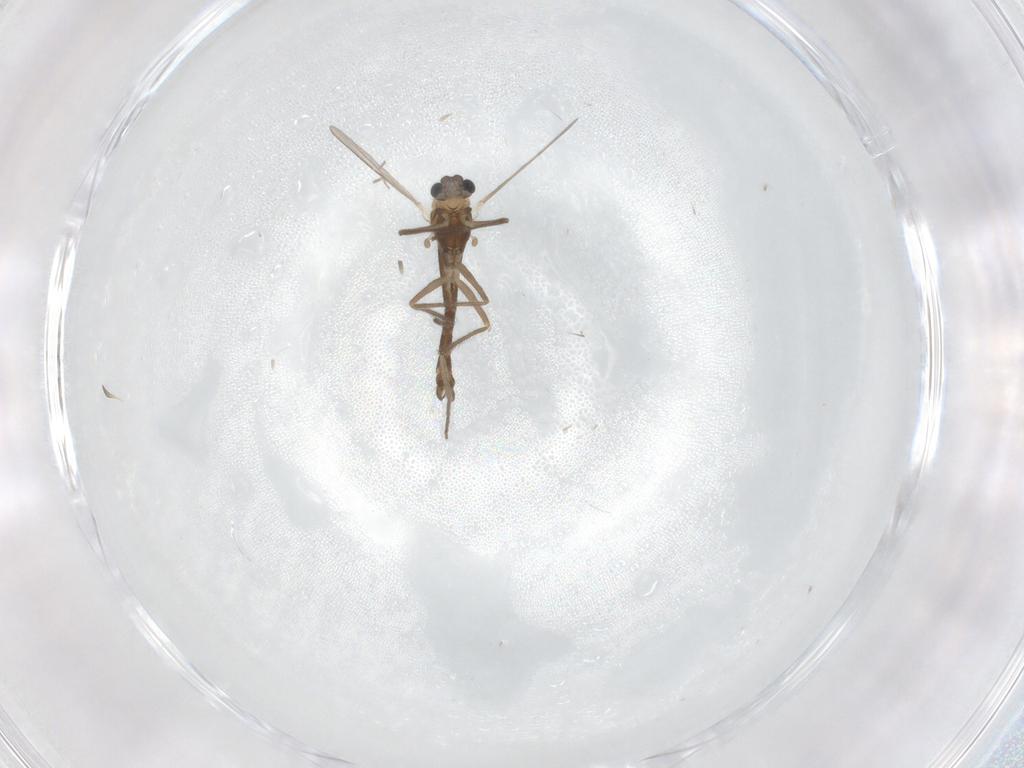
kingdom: Animalia
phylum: Arthropoda
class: Insecta
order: Diptera
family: Chironomidae
